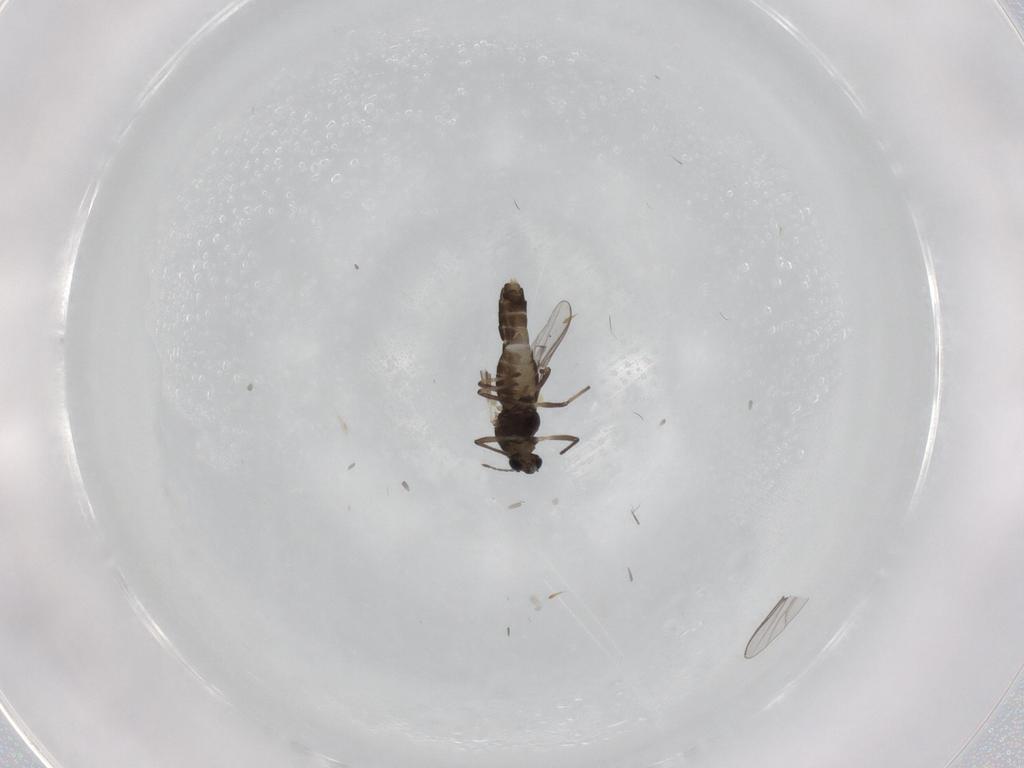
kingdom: Animalia
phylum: Arthropoda
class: Insecta
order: Diptera
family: Chironomidae
